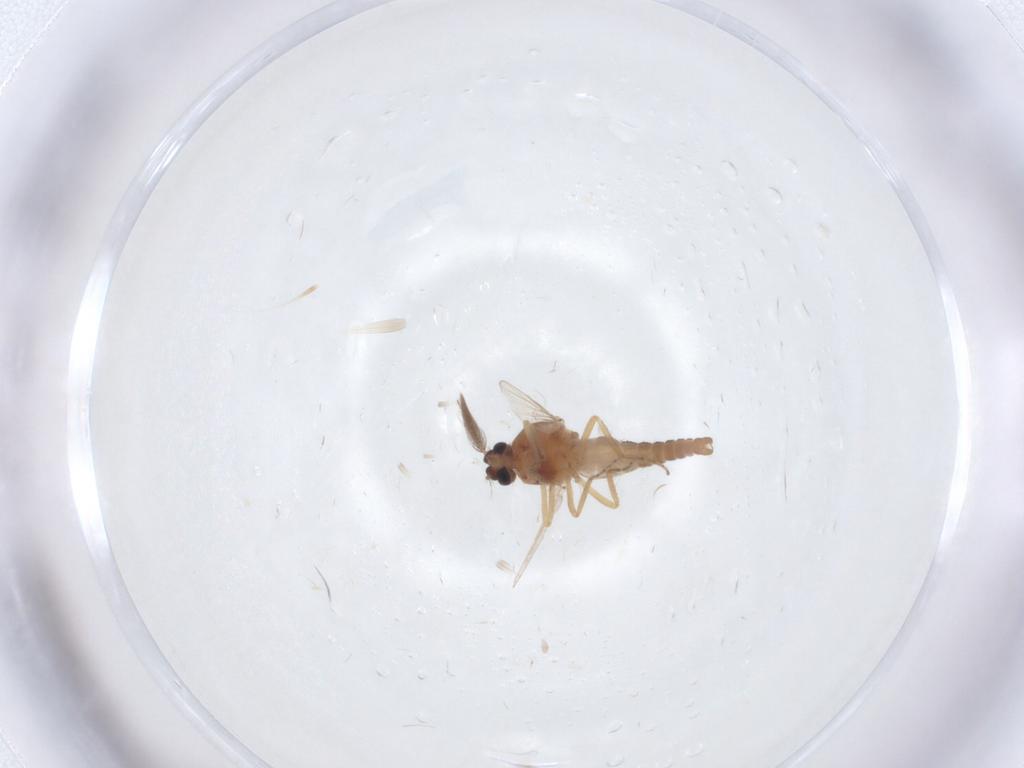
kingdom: Animalia
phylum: Arthropoda
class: Insecta
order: Diptera
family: Ceratopogonidae
